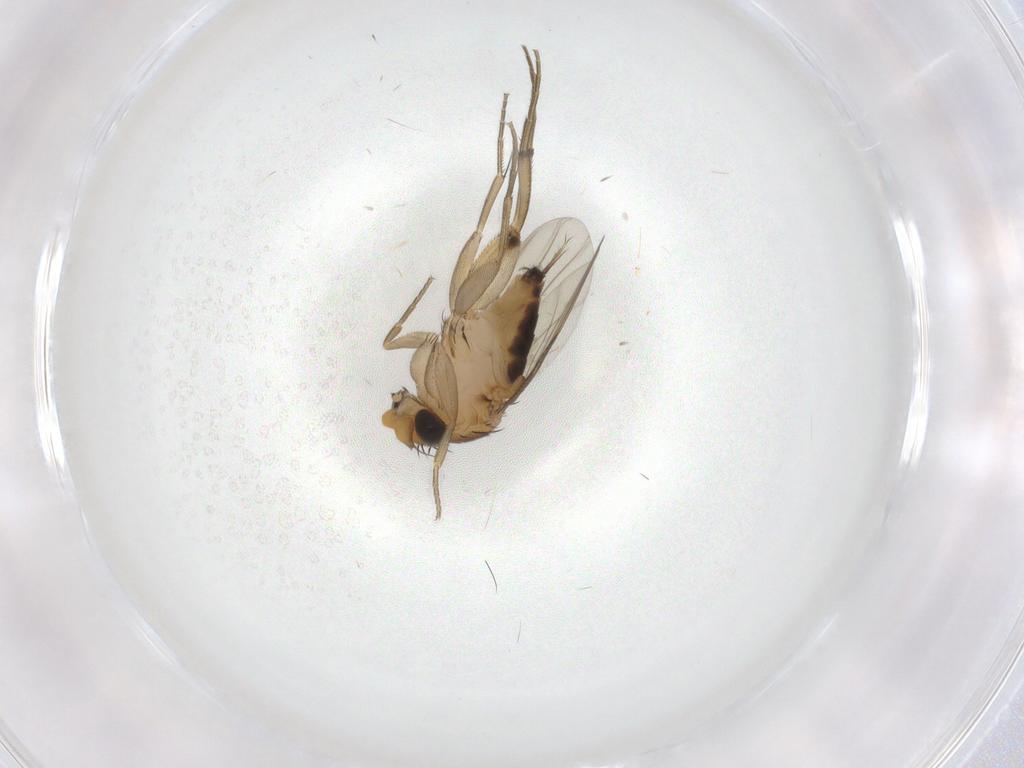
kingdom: Animalia
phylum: Arthropoda
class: Insecta
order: Diptera
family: Phoridae
